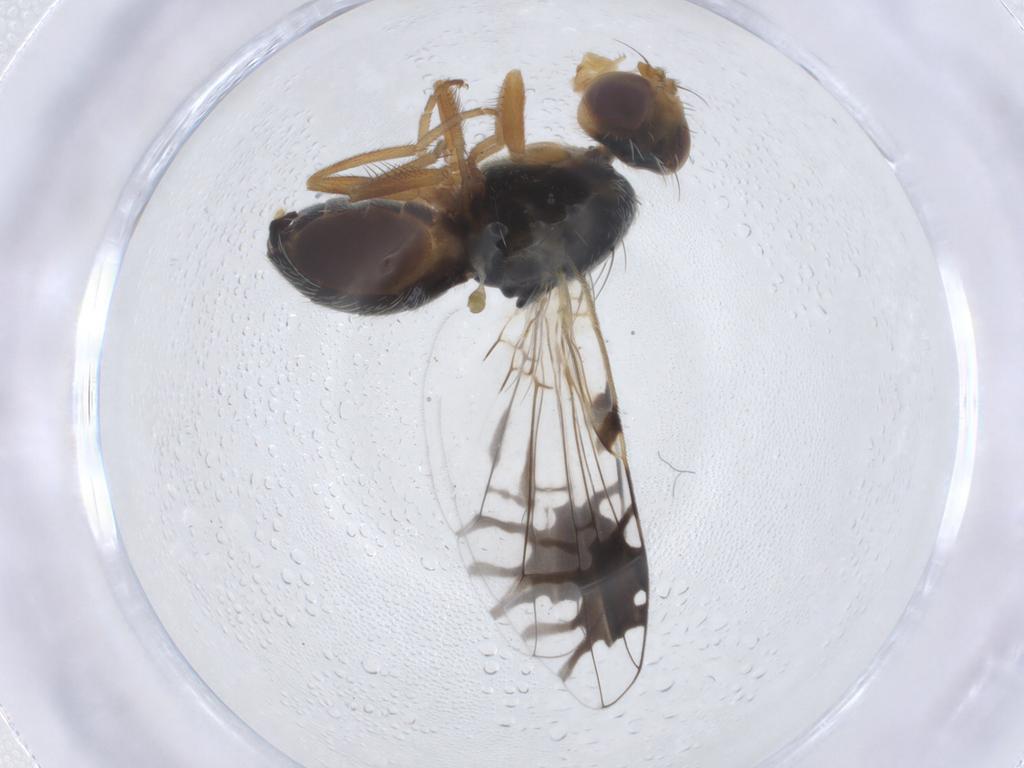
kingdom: Animalia
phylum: Arthropoda
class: Insecta
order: Diptera
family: Tephritidae
